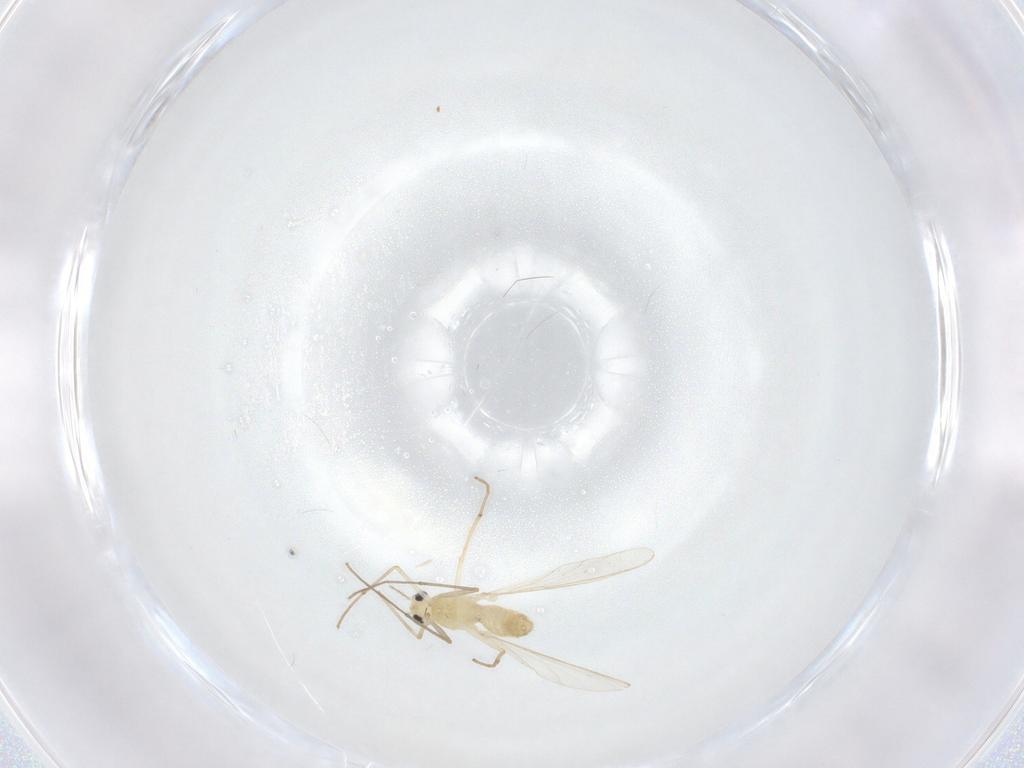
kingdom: Animalia
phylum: Arthropoda
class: Insecta
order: Diptera
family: Chironomidae
